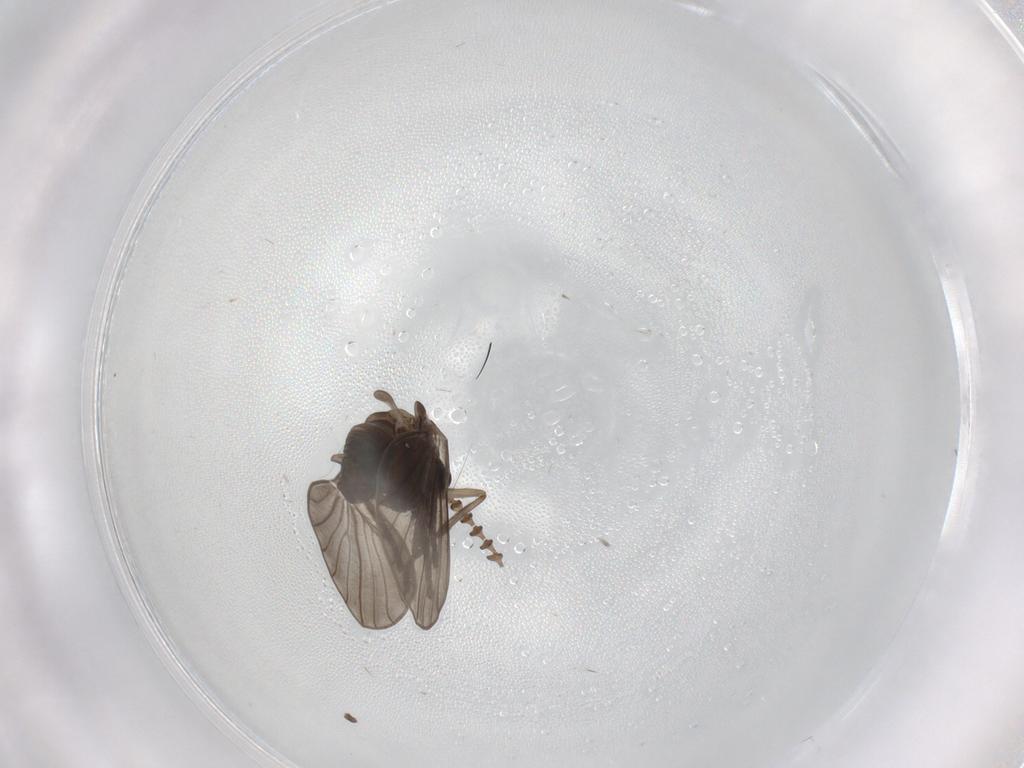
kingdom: Animalia
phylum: Arthropoda
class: Insecta
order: Diptera
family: Psychodidae
